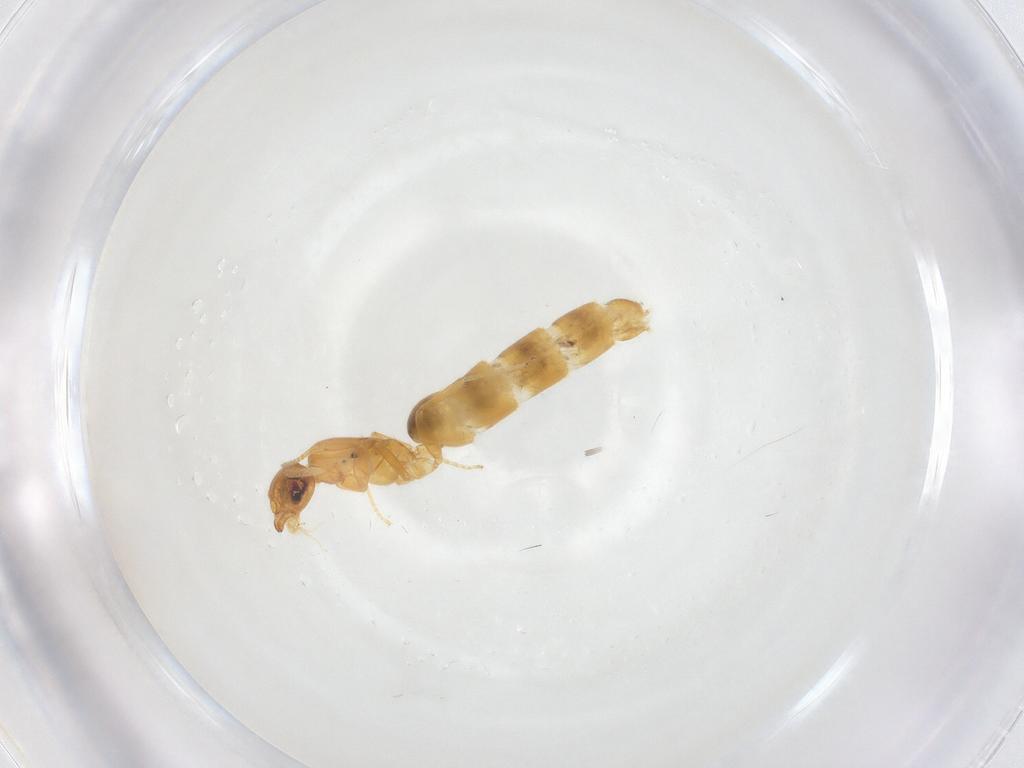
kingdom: Animalia
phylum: Arthropoda
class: Insecta
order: Hymenoptera
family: Formicidae
